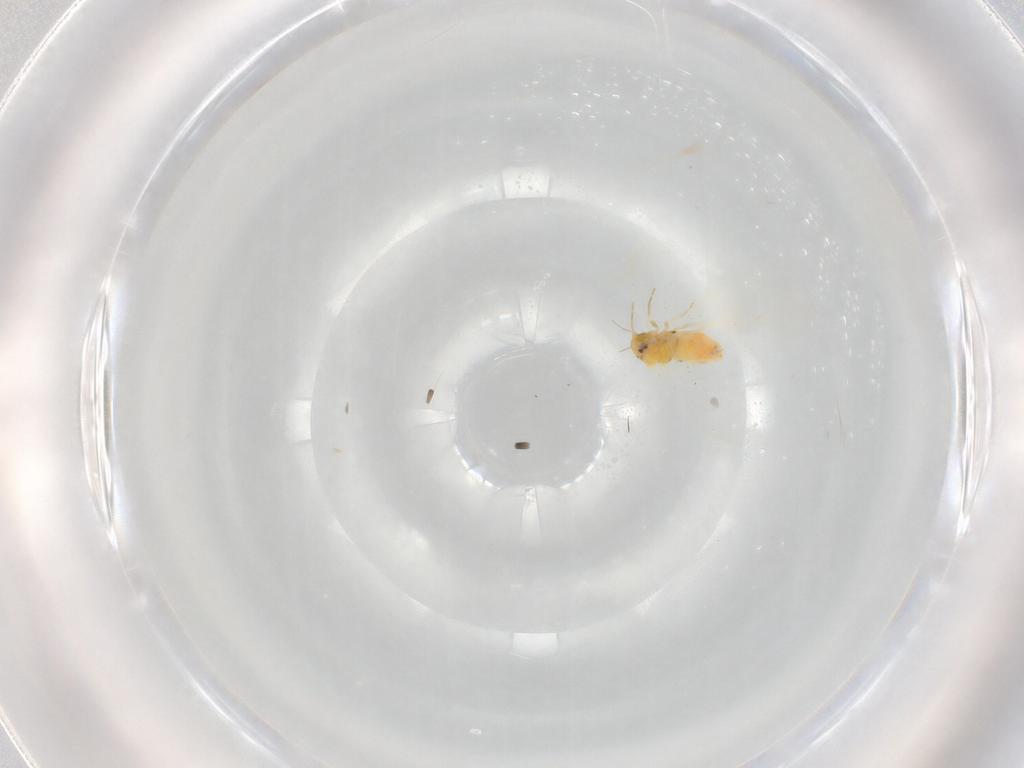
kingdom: Animalia
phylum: Arthropoda
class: Insecta
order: Hemiptera
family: Aleyrodidae
